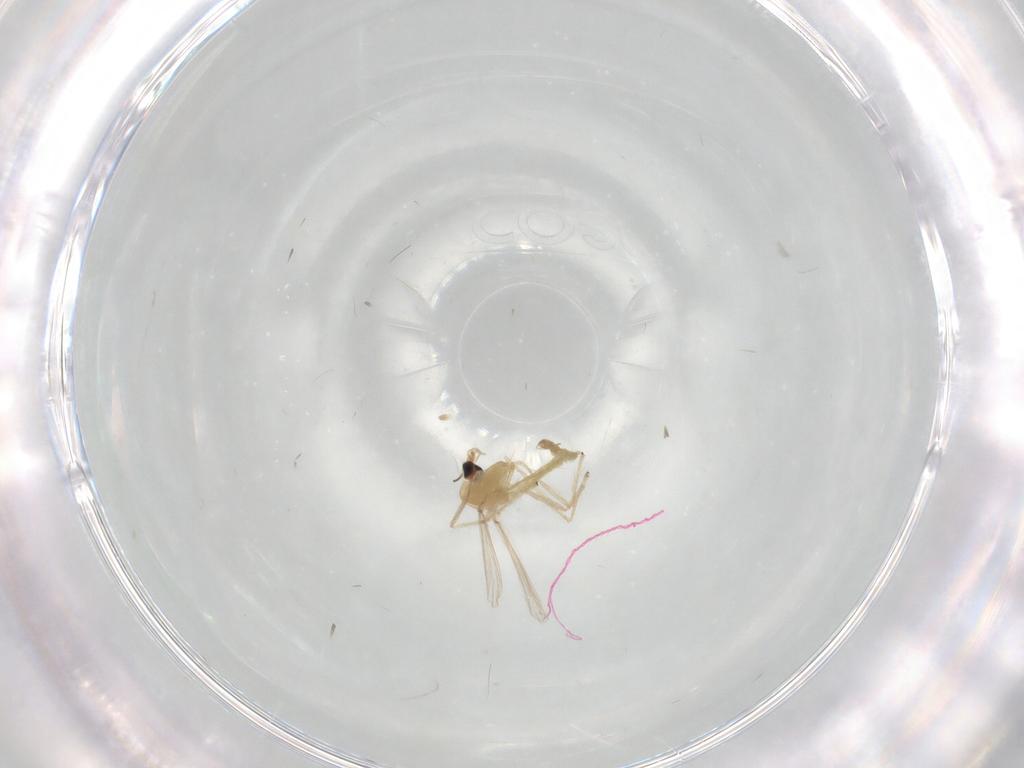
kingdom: Animalia
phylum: Arthropoda
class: Insecta
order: Diptera
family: Chironomidae
